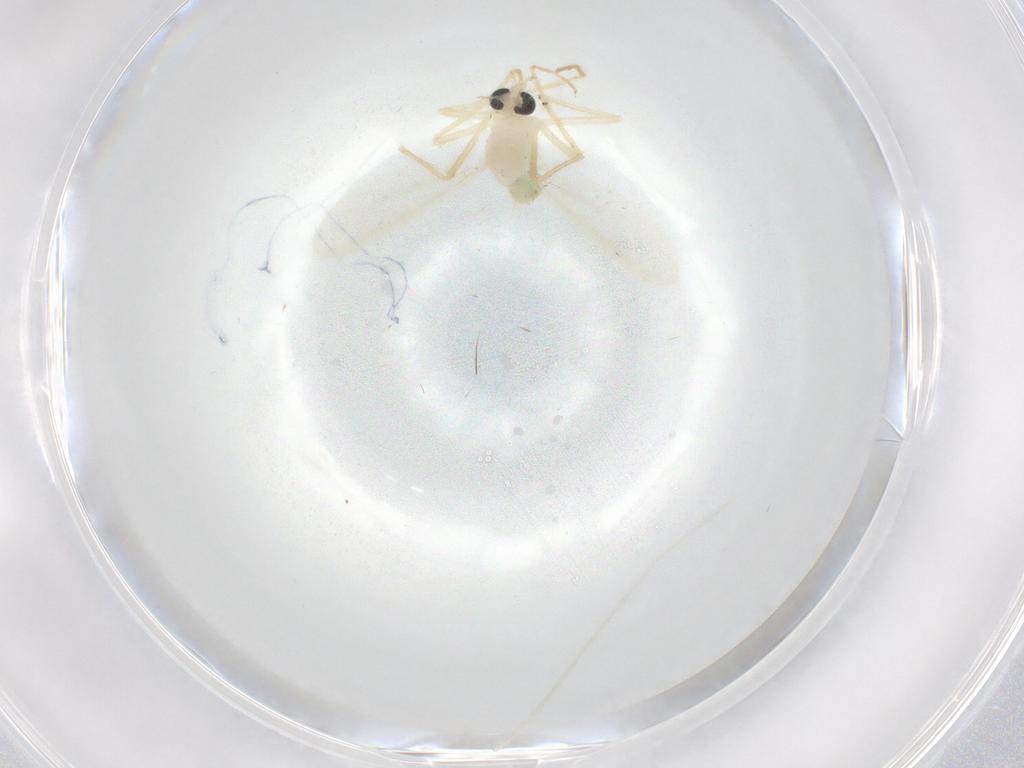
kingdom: Animalia
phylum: Arthropoda
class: Insecta
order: Diptera
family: Chironomidae
